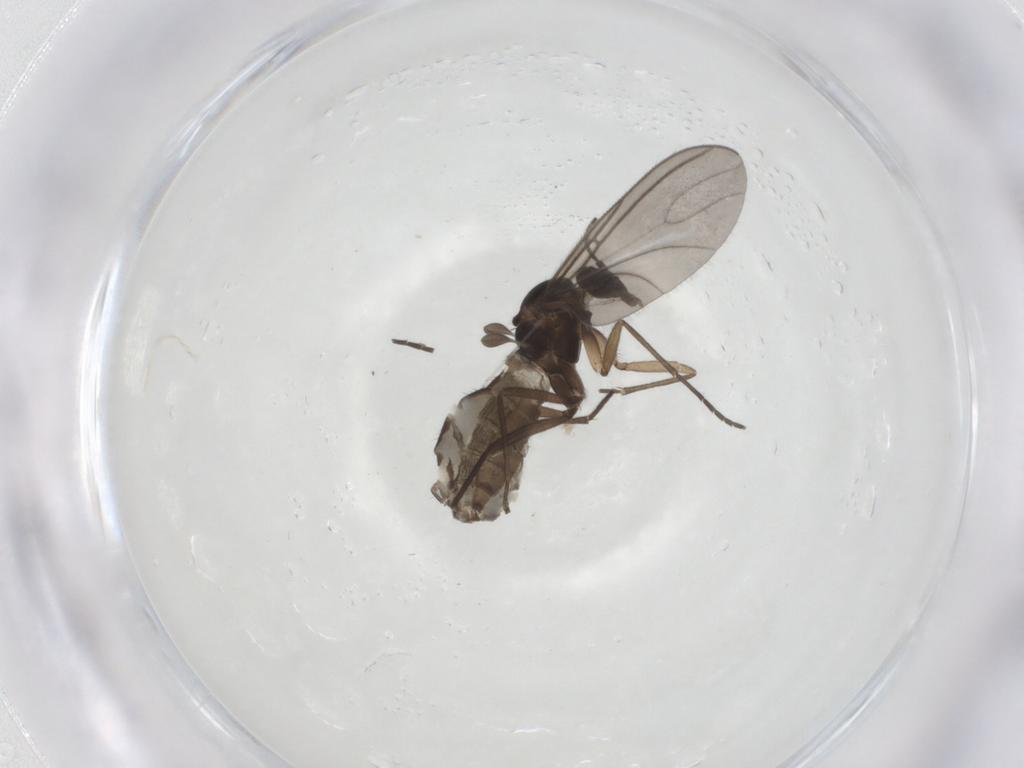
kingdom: Animalia
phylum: Arthropoda
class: Insecta
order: Diptera
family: Sciaridae
